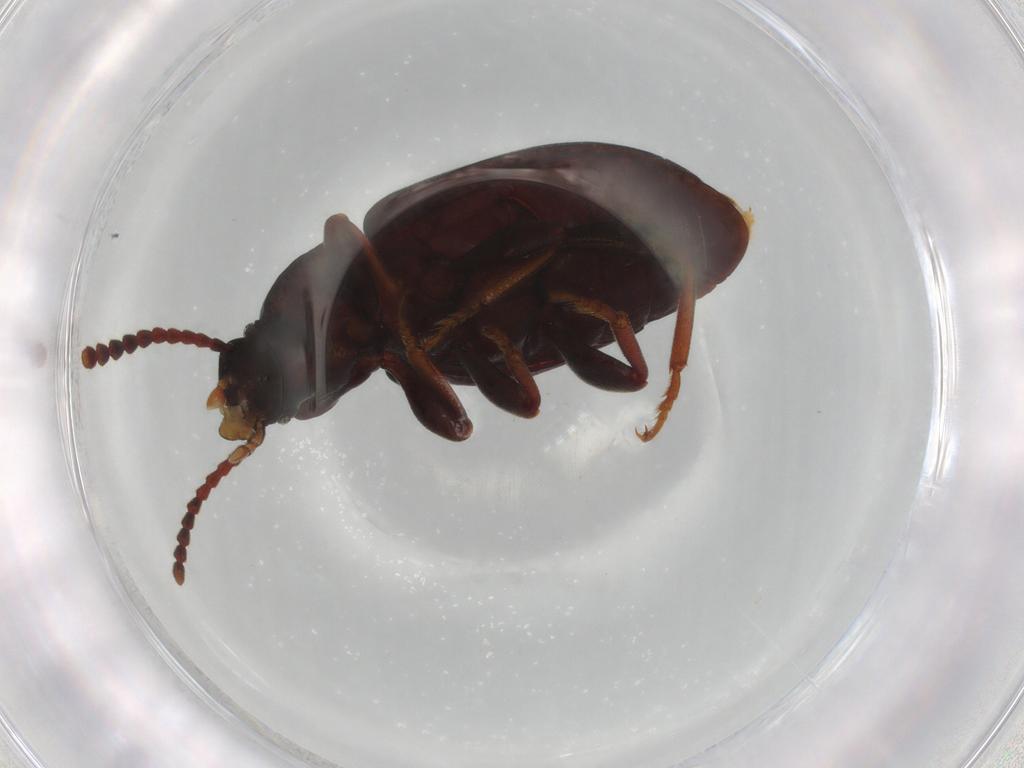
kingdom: Animalia
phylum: Arthropoda
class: Insecta
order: Coleoptera
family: Curculionidae
